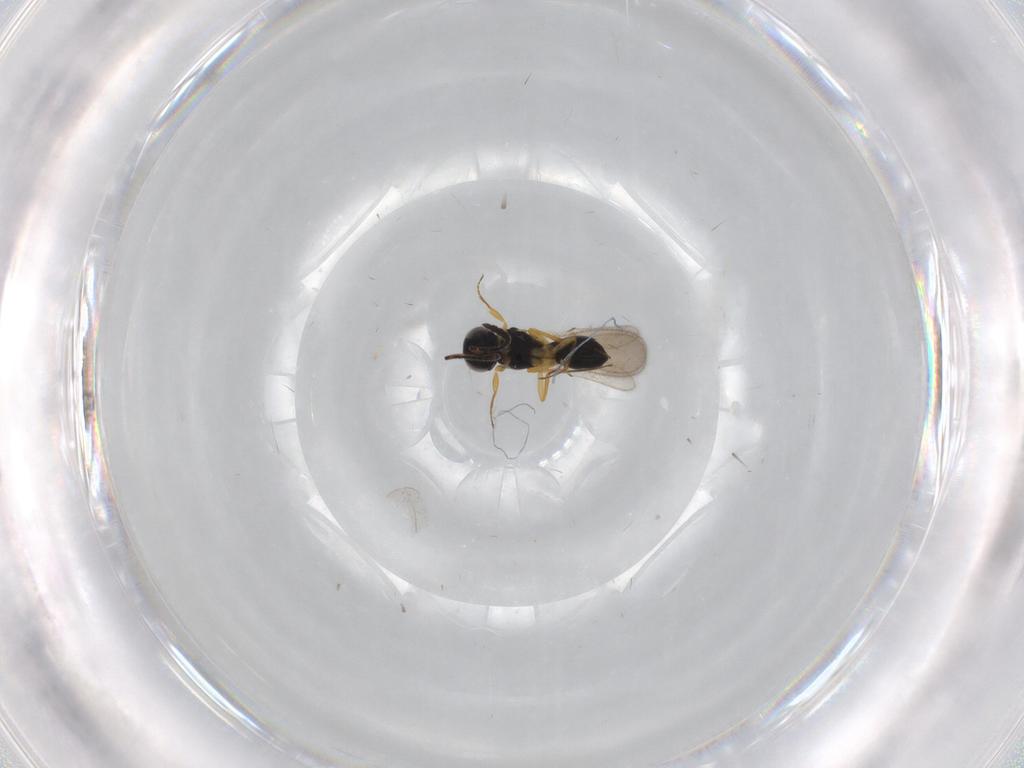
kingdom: Animalia
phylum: Arthropoda
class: Insecta
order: Hymenoptera
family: Scelionidae
